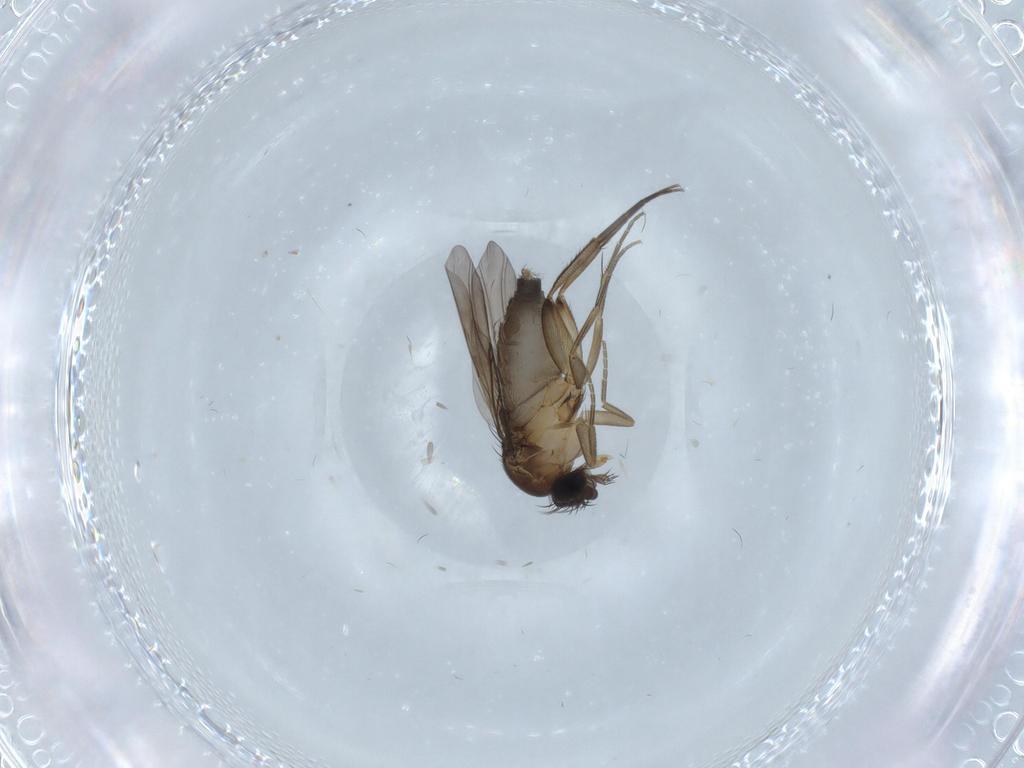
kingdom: Animalia
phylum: Arthropoda
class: Insecta
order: Diptera
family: Phoridae
